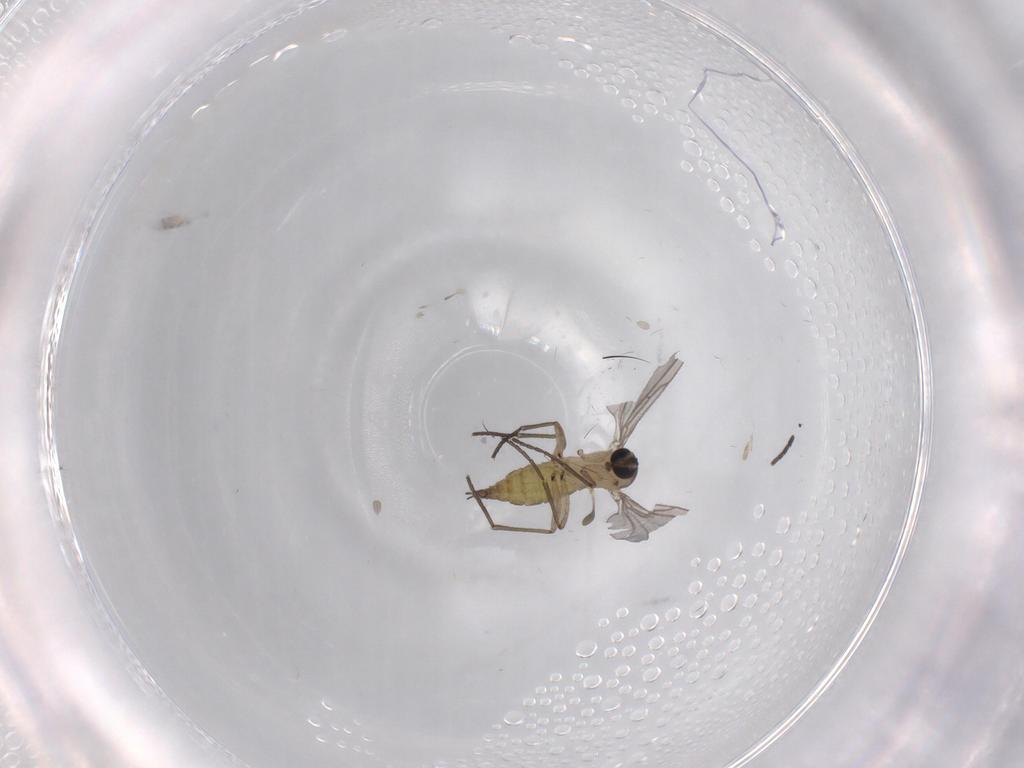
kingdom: Animalia
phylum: Arthropoda
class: Insecta
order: Diptera
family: Sciaridae
